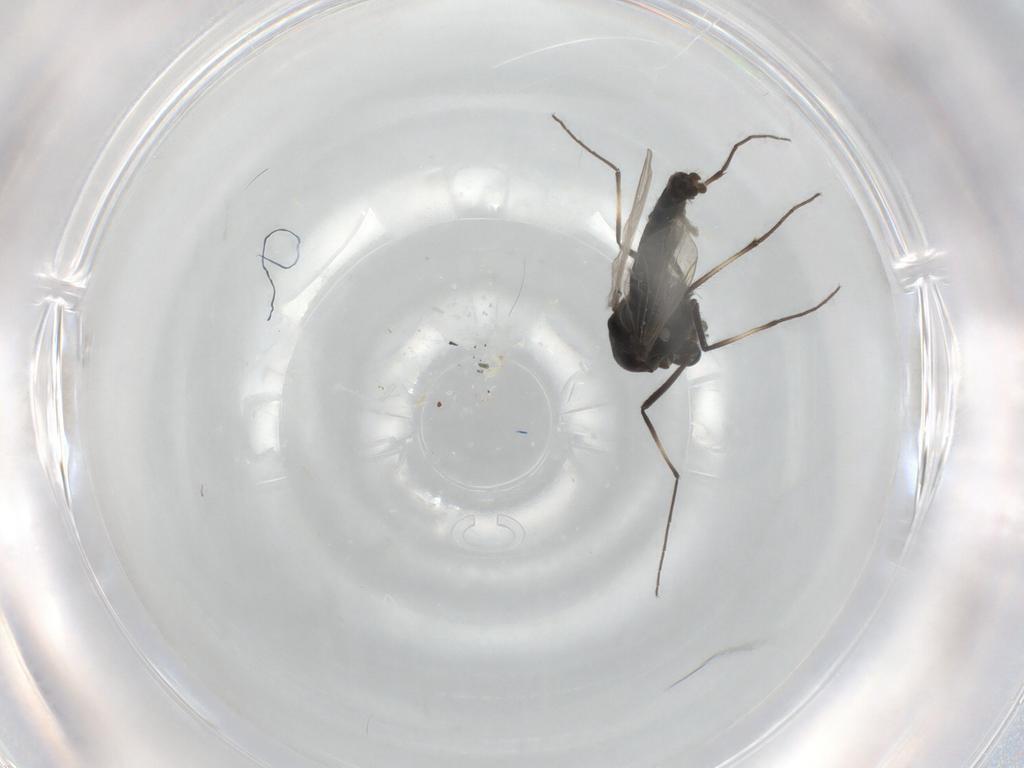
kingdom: Animalia
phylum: Arthropoda
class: Insecta
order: Diptera
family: Chironomidae
